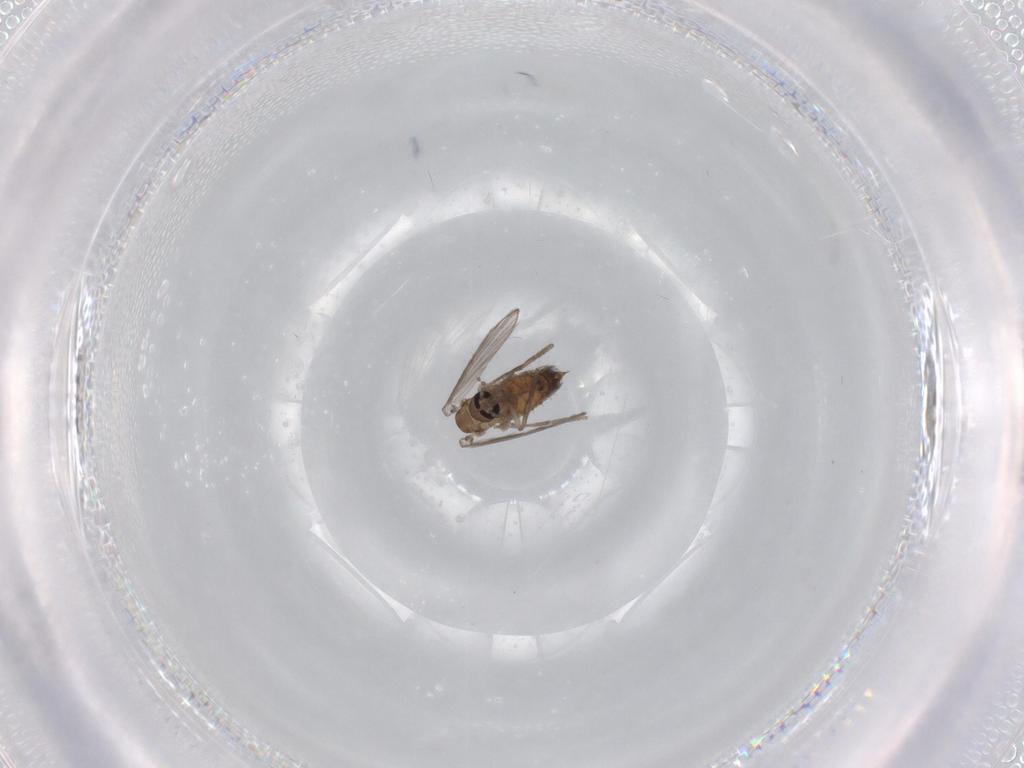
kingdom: Animalia
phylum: Arthropoda
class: Insecta
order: Diptera
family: Psychodidae
